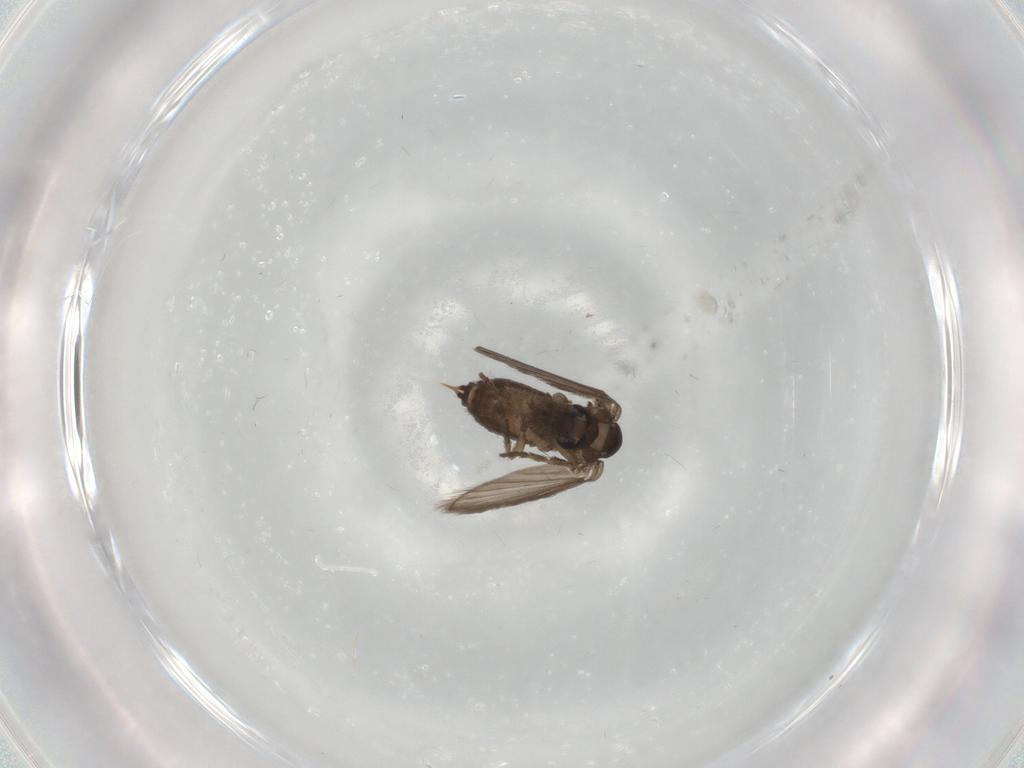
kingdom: Animalia
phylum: Arthropoda
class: Insecta
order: Diptera
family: Psychodidae
